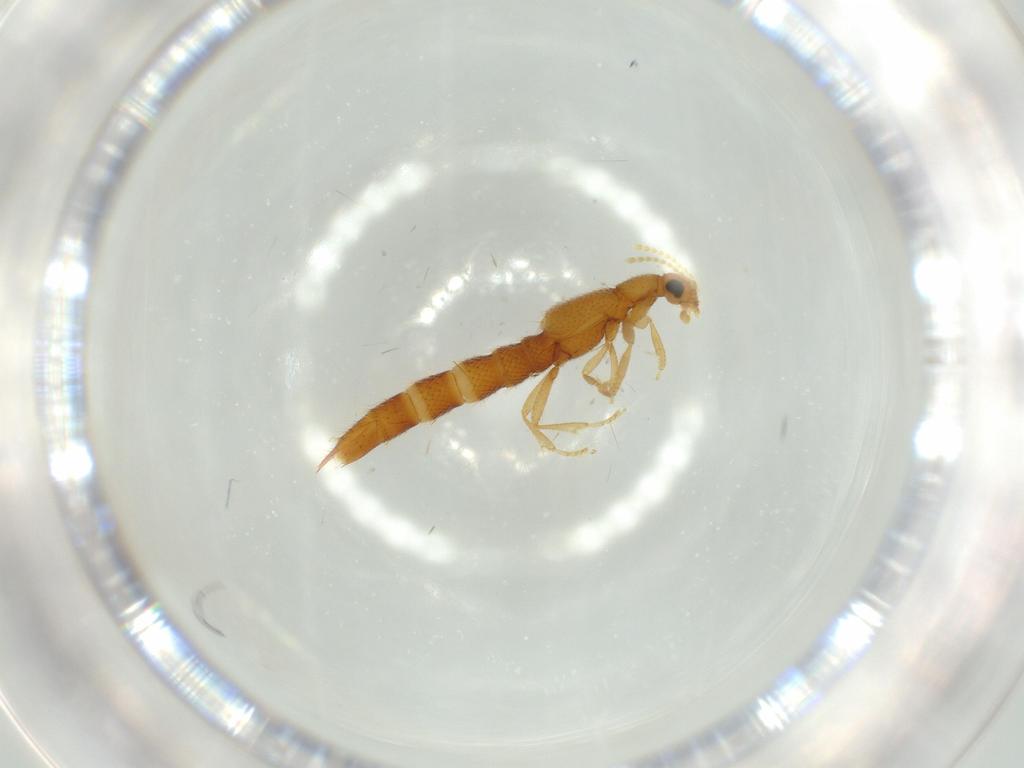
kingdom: Animalia
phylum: Arthropoda
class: Insecta
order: Coleoptera
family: Staphylinidae
